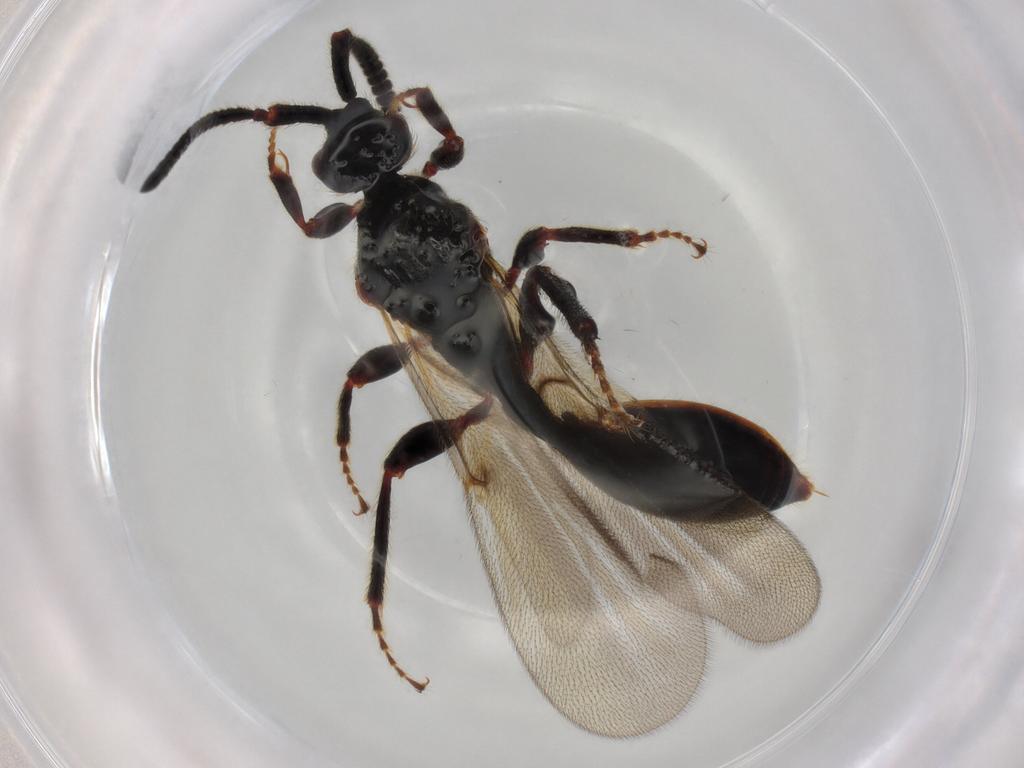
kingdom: Animalia
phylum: Arthropoda
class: Insecta
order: Hymenoptera
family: Diapriidae
